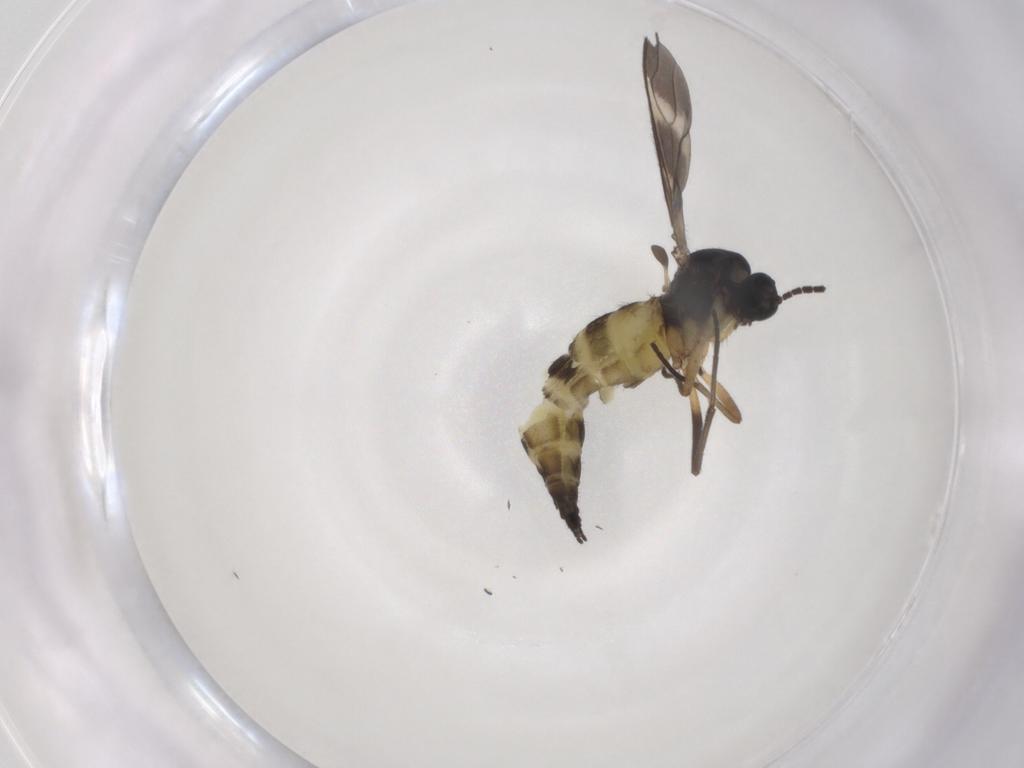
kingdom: Animalia
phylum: Arthropoda
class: Insecta
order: Diptera
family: Sciaridae
